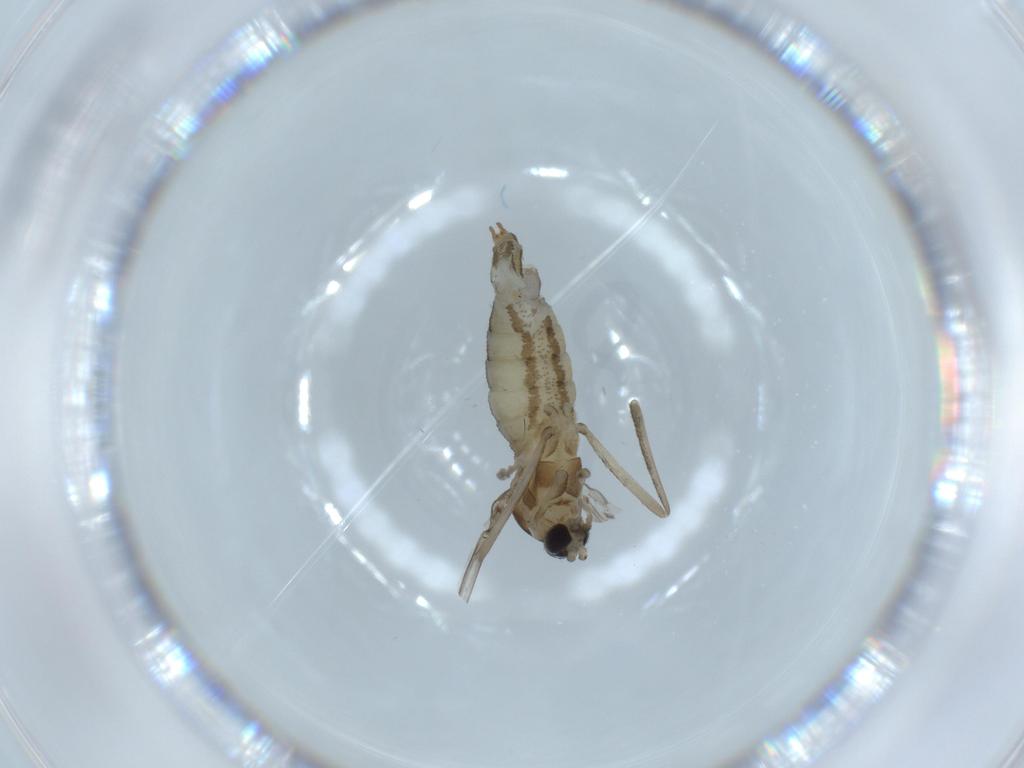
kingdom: Animalia
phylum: Arthropoda
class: Insecta
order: Diptera
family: Cecidomyiidae
